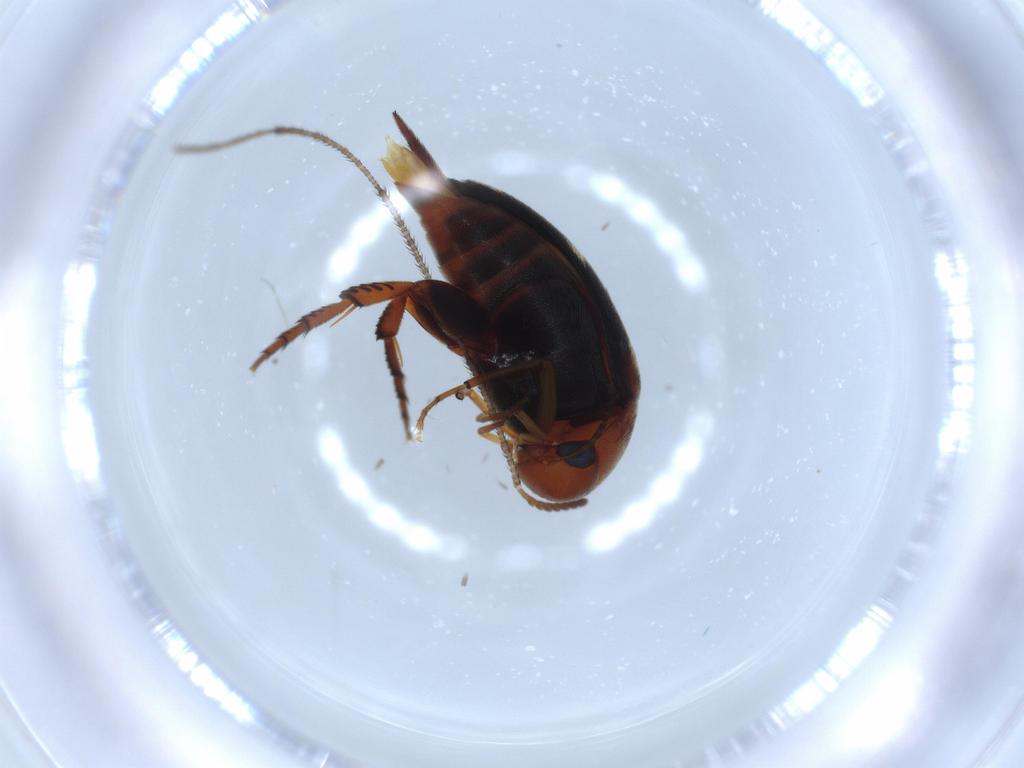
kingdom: Animalia
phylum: Arthropoda
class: Insecta
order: Coleoptera
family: Mordellidae
